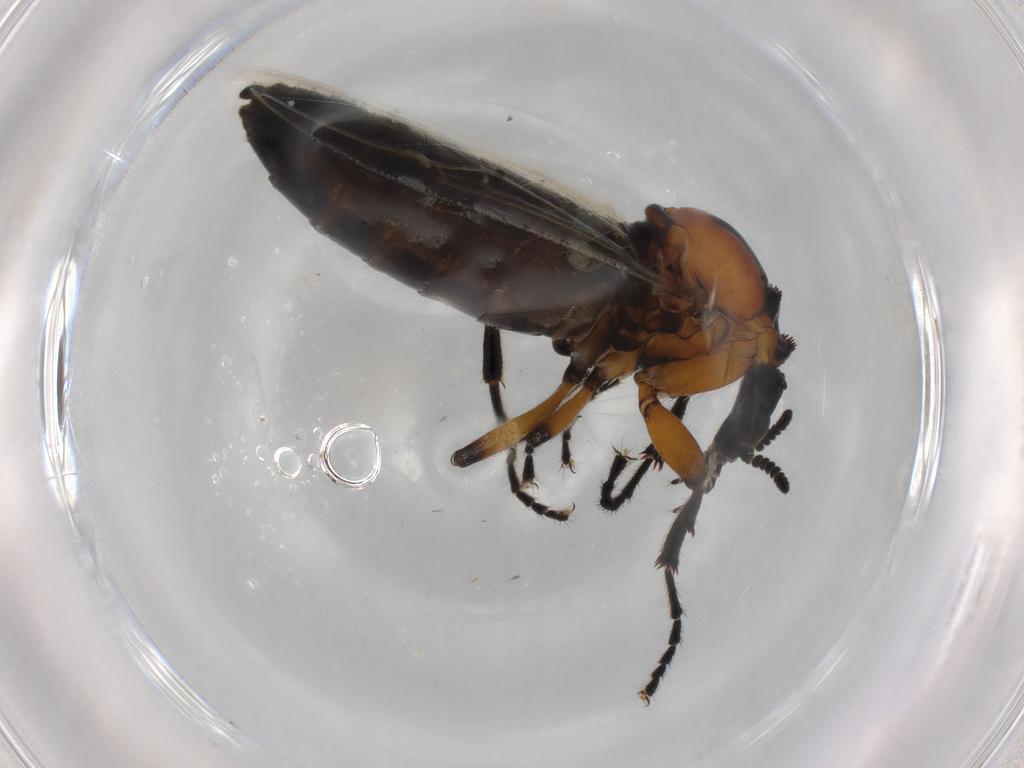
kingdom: Animalia
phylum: Arthropoda
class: Insecta
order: Diptera
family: Bibionidae
